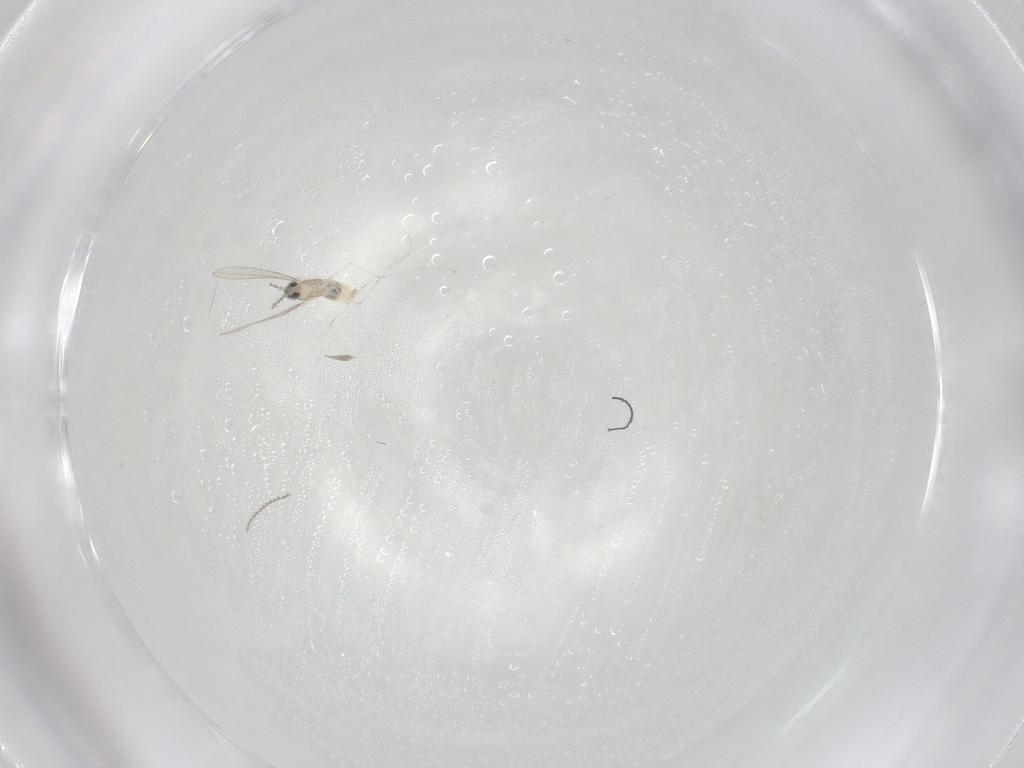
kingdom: Animalia
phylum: Arthropoda
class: Insecta
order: Diptera
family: Cecidomyiidae
